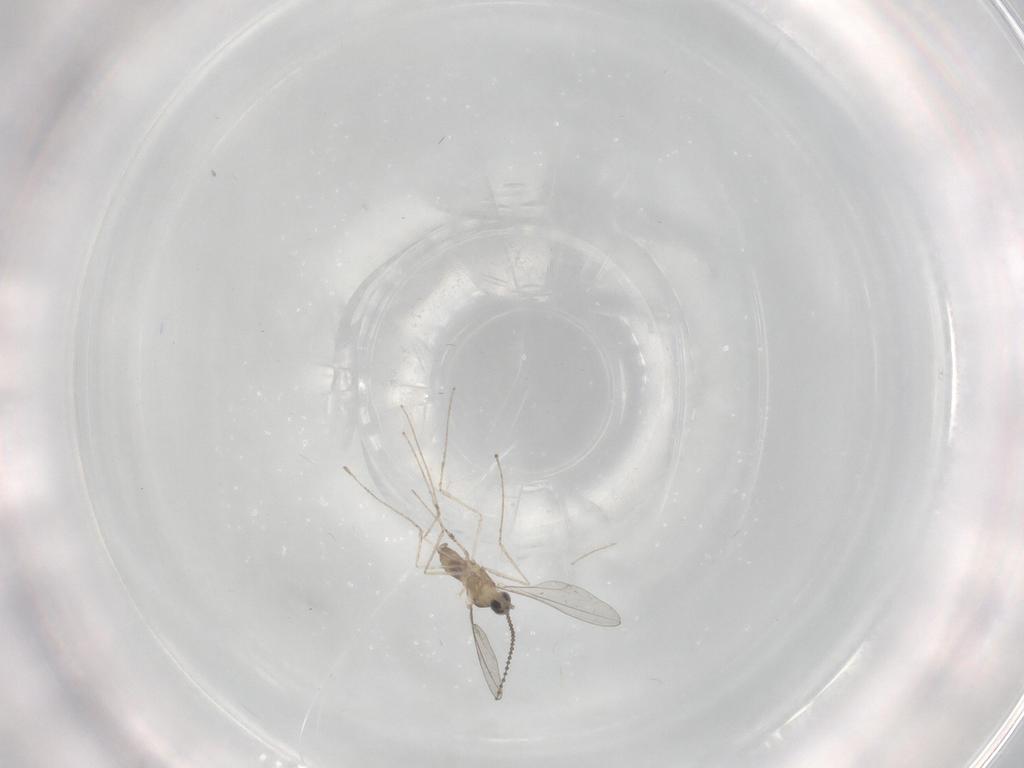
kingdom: Animalia
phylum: Arthropoda
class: Insecta
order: Diptera
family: Cecidomyiidae
